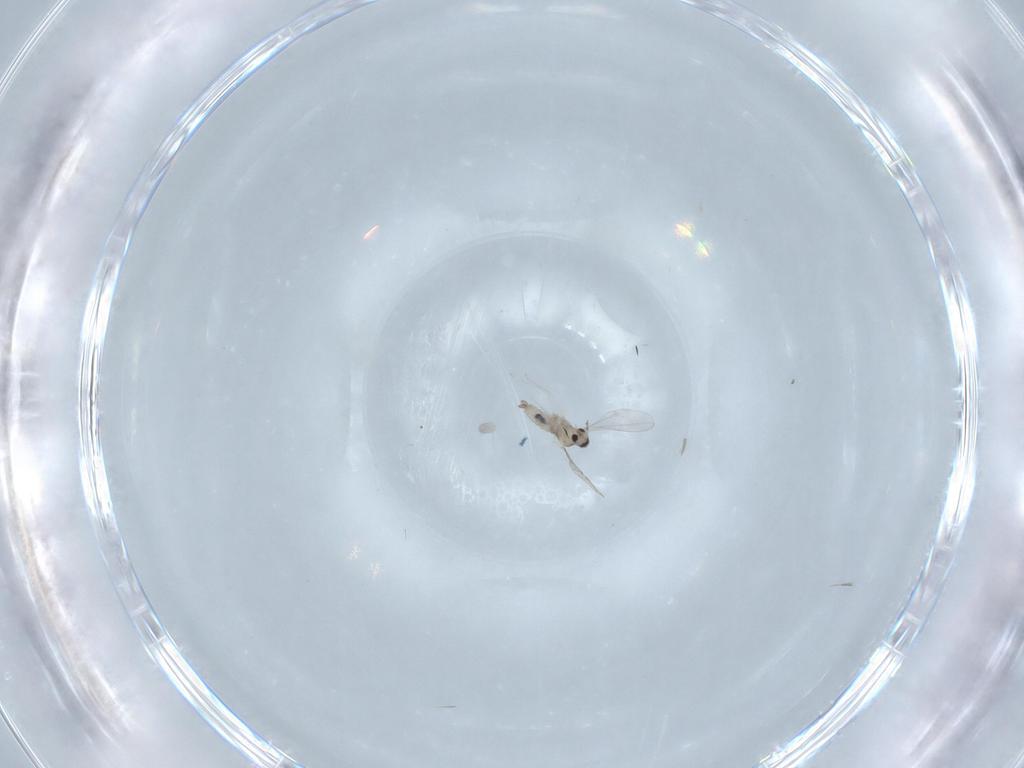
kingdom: Animalia
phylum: Arthropoda
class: Insecta
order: Diptera
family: Cecidomyiidae
